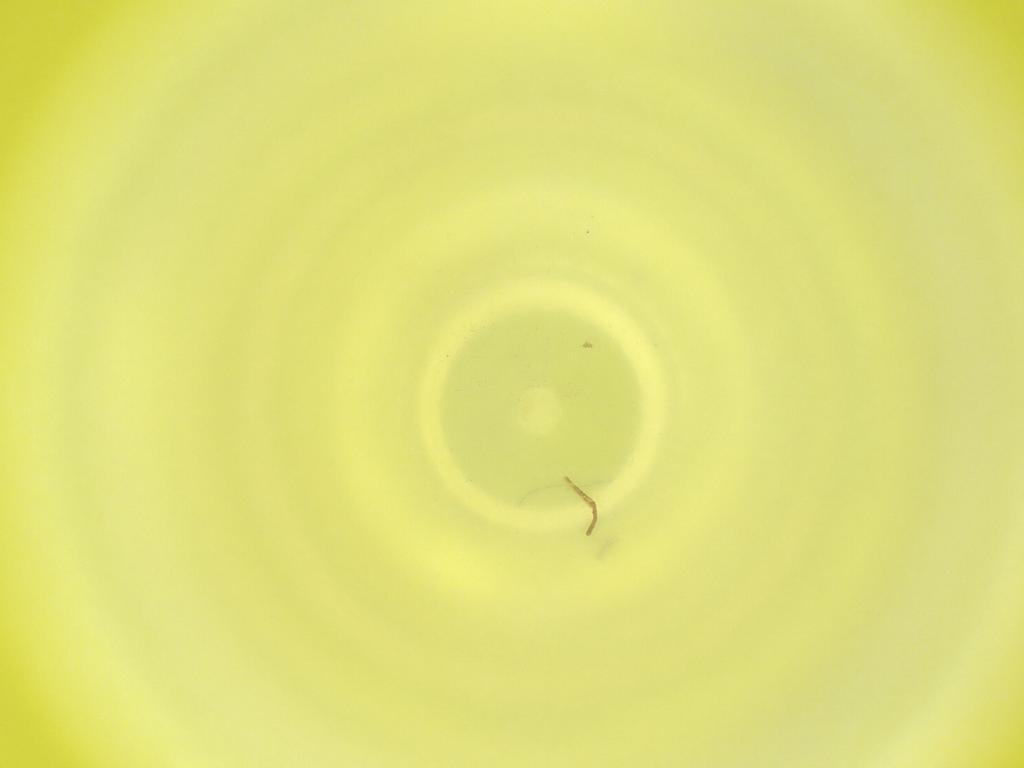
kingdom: Animalia
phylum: Arthropoda
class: Insecta
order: Diptera
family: Cecidomyiidae
